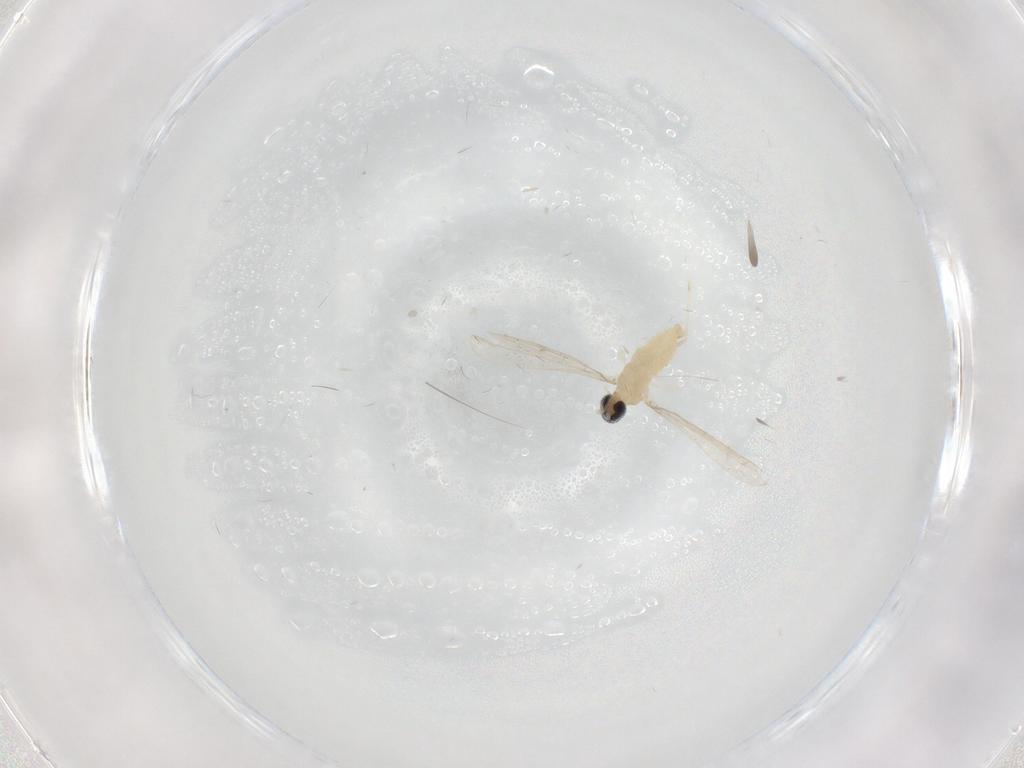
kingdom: Animalia
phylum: Arthropoda
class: Insecta
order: Diptera
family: Cecidomyiidae
